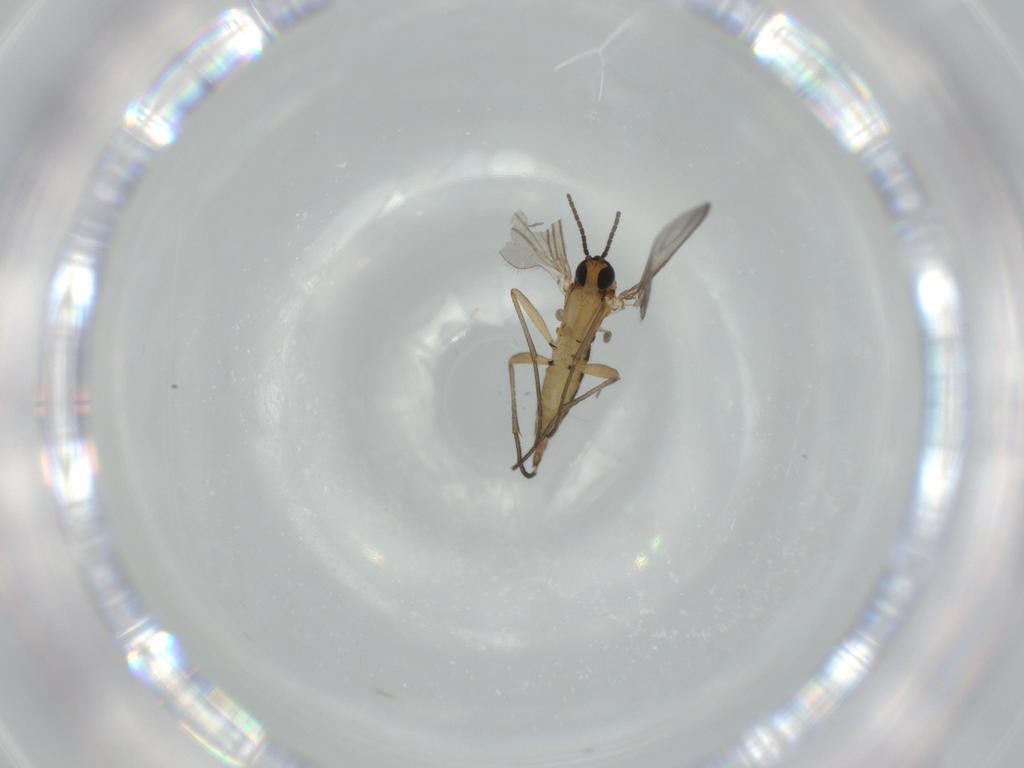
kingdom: Animalia
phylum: Arthropoda
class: Insecta
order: Diptera
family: Sciaridae
